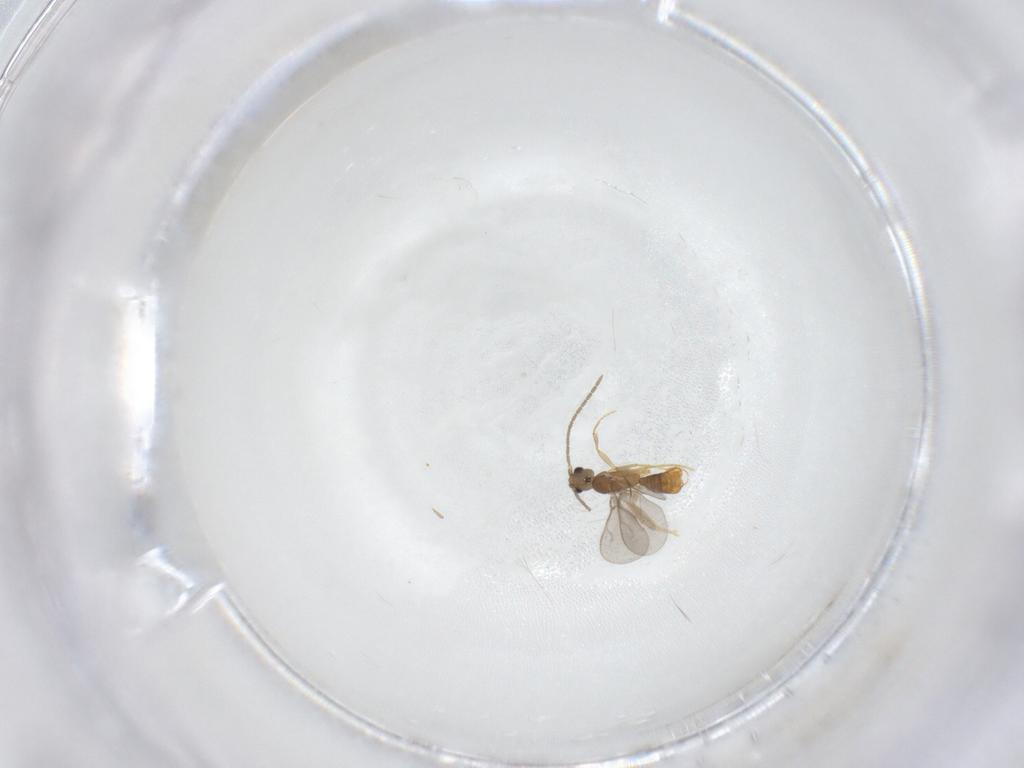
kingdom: Animalia
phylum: Arthropoda
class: Insecta
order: Hymenoptera
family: Formicidae
